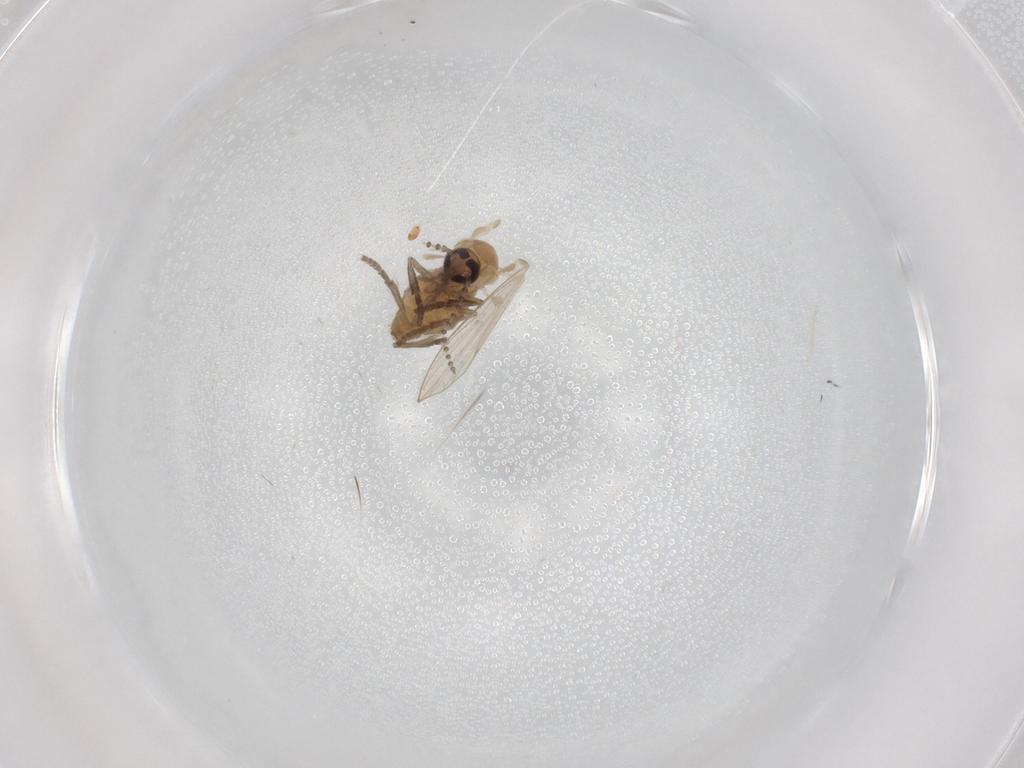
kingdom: Animalia
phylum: Arthropoda
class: Insecta
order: Diptera
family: Psychodidae
